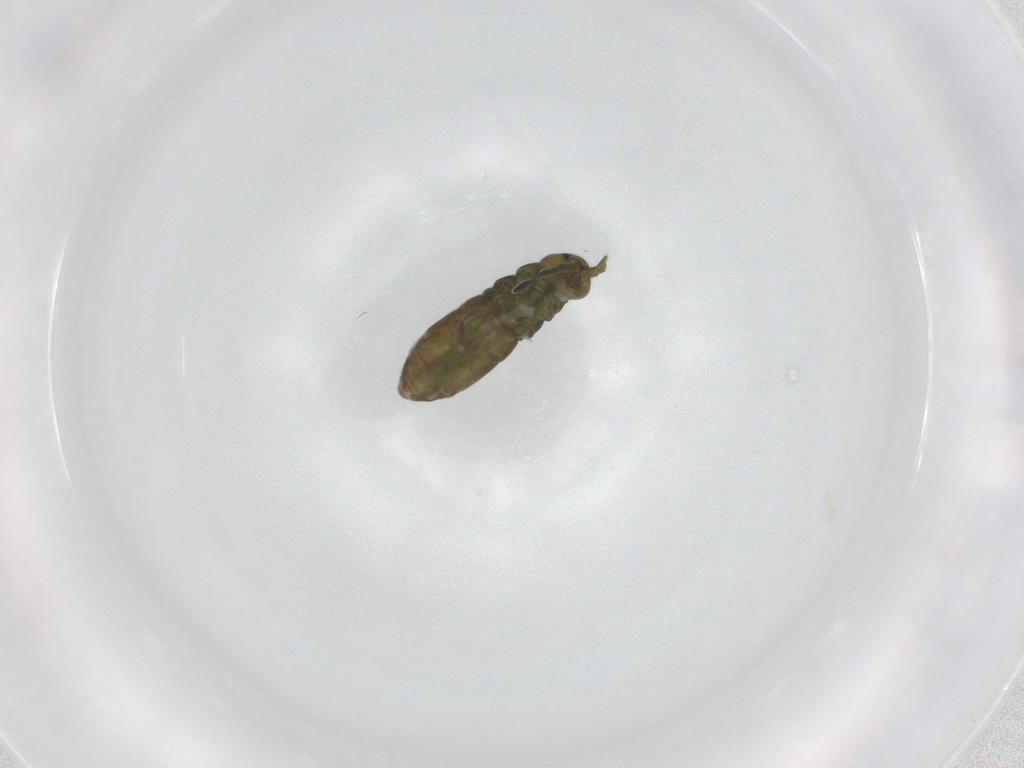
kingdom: Animalia
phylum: Arthropoda
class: Collembola
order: Entomobryomorpha
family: Isotomidae
